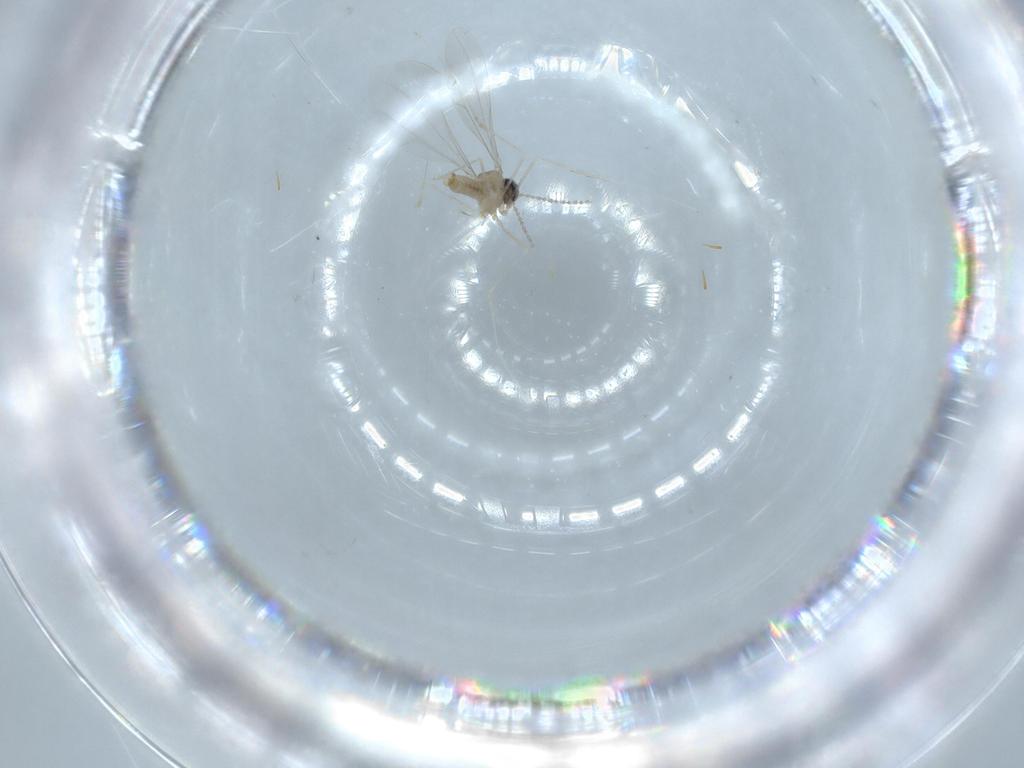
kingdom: Animalia
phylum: Arthropoda
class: Insecta
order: Diptera
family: Cecidomyiidae
